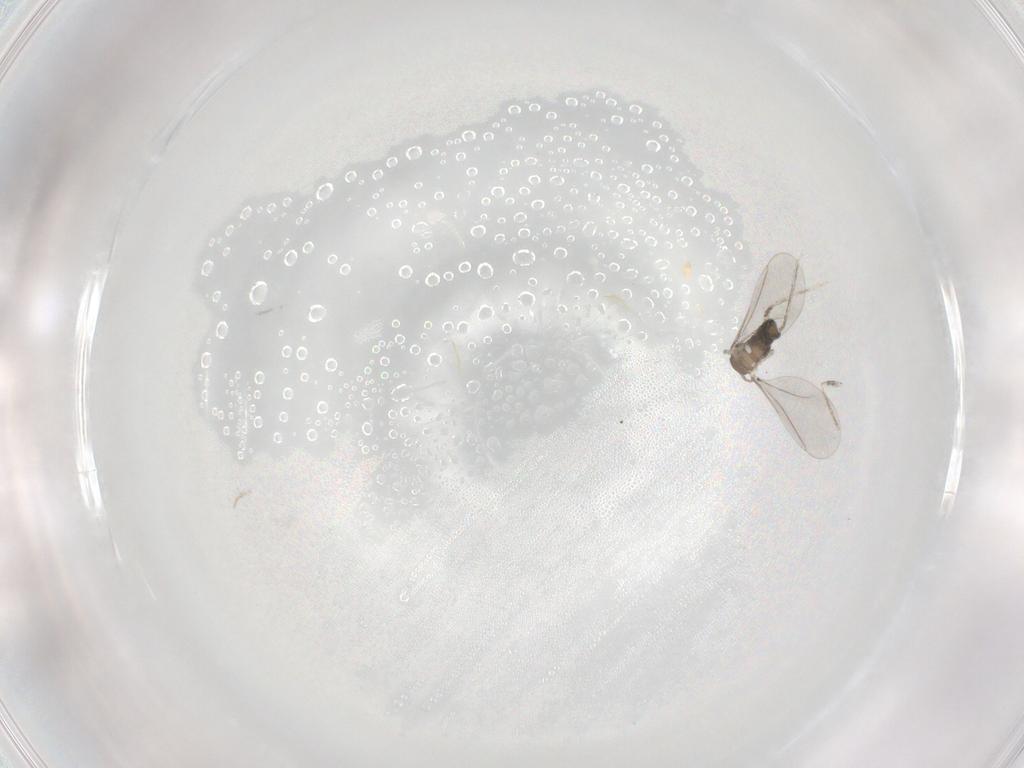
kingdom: Animalia
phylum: Arthropoda
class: Insecta
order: Diptera
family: Cecidomyiidae
